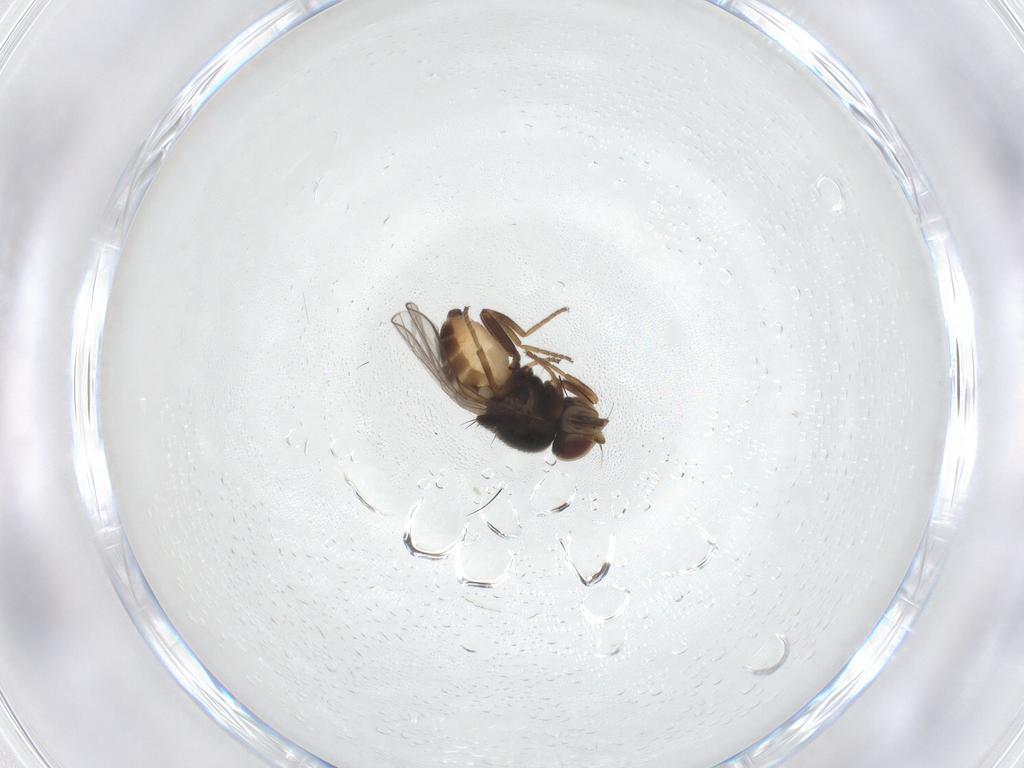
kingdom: Animalia
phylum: Arthropoda
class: Insecta
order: Diptera
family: Chloropidae
